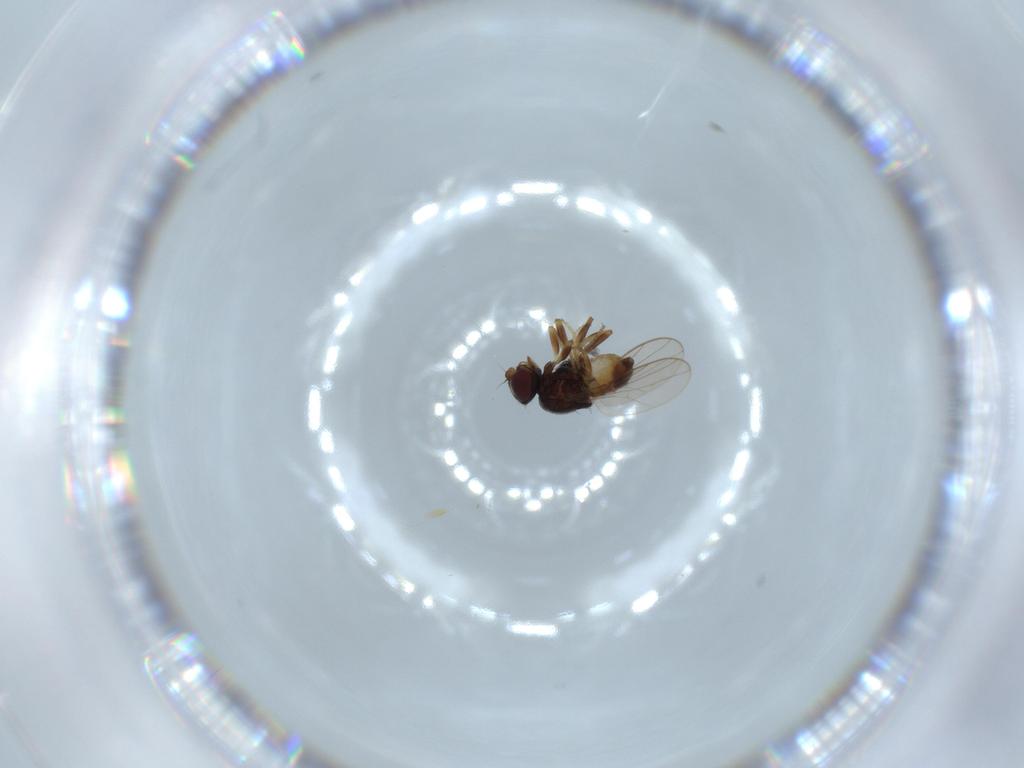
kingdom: Animalia
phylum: Arthropoda
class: Insecta
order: Diptera
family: Chloropidae
